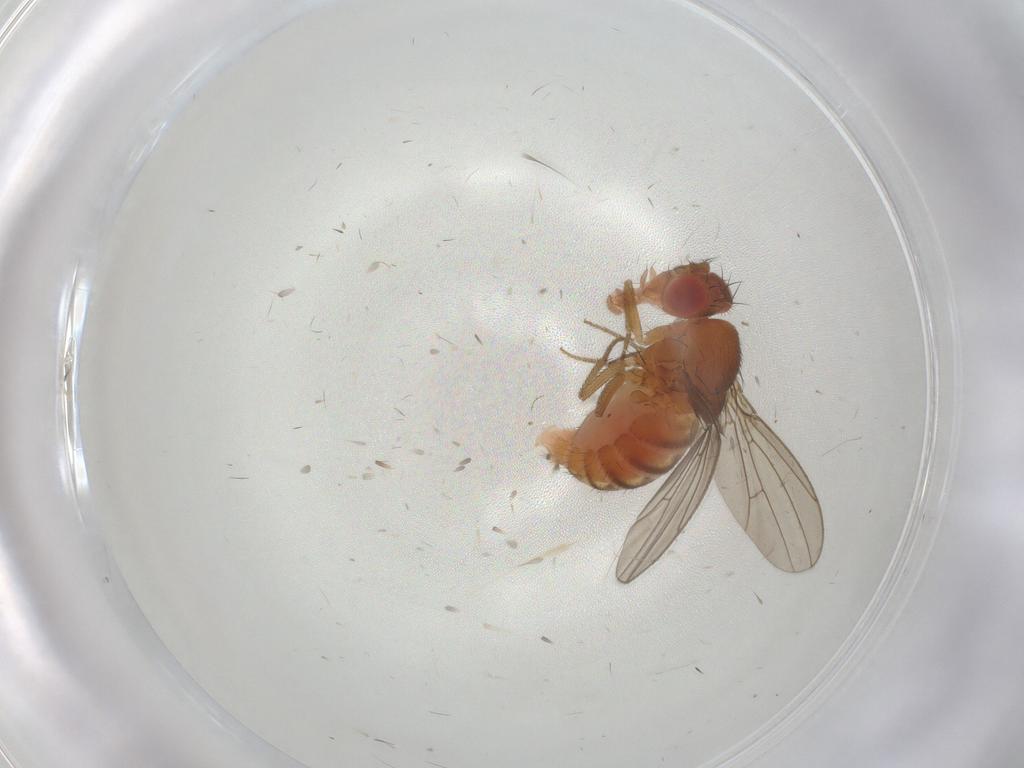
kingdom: Animalia
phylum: Arthropoda
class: Insecta
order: Diptera
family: Drosophilidae
